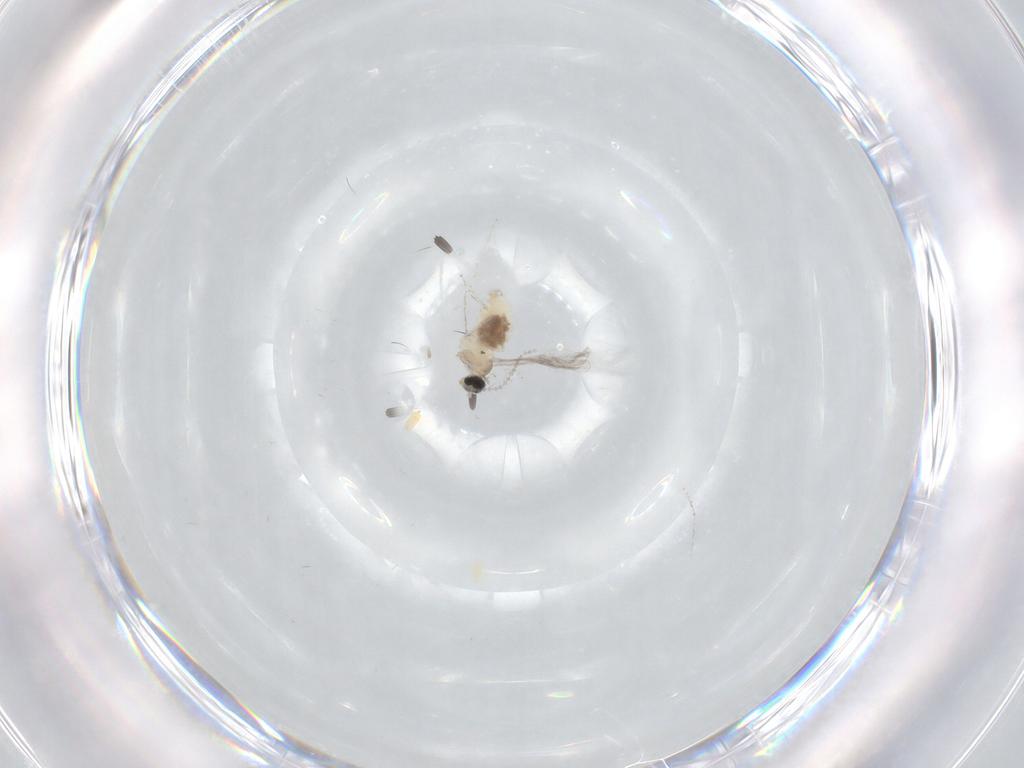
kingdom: Animalia
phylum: Arthropoda
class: Insecta
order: Diptera
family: Cecidomyiidae
